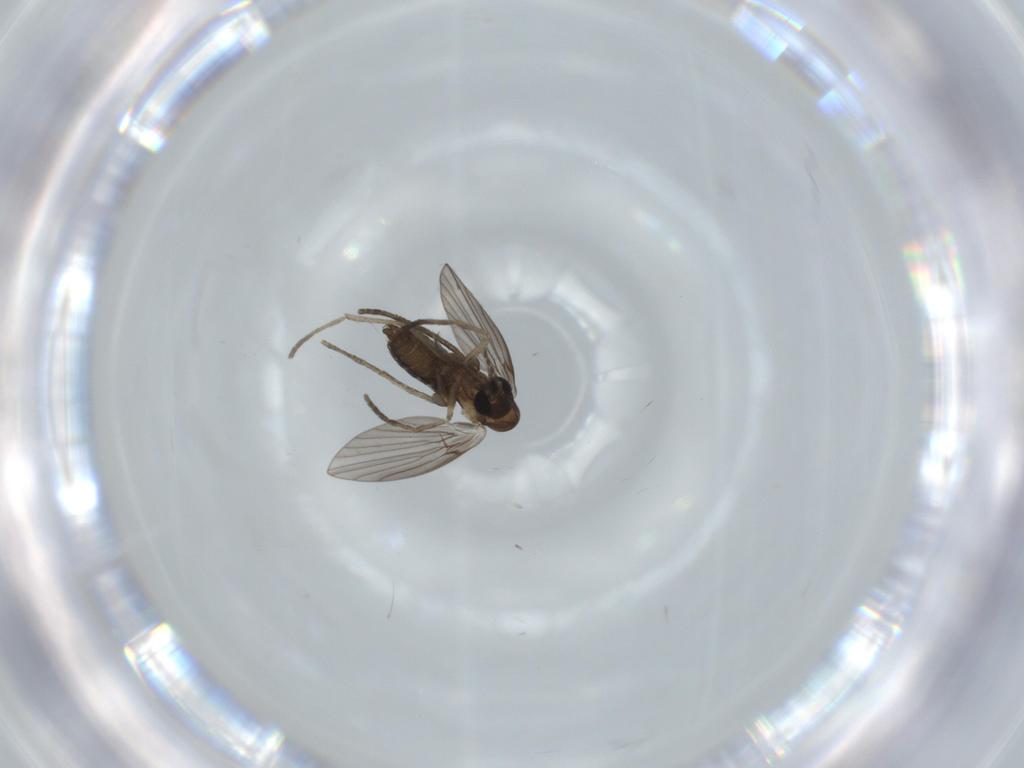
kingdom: Animalia
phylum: Arthropoda
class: Insecta
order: Diptera
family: Psychodidae
